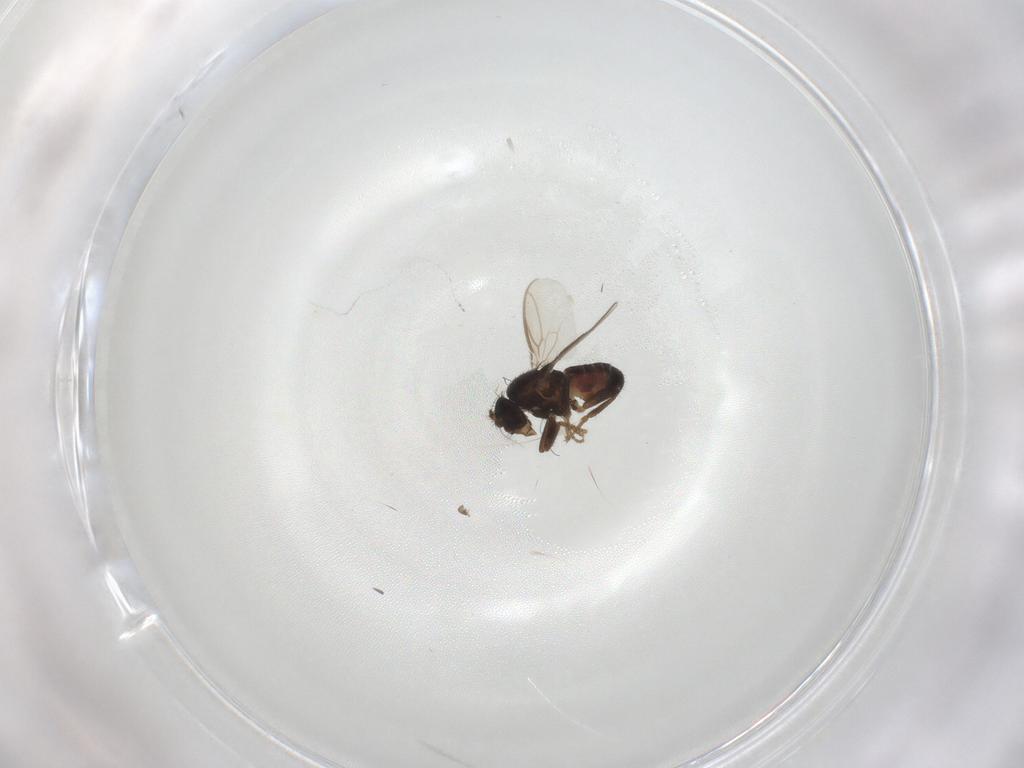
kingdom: Animalia
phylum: Arthropoda
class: Insecta
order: Diptera
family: Sphaeroceridae
